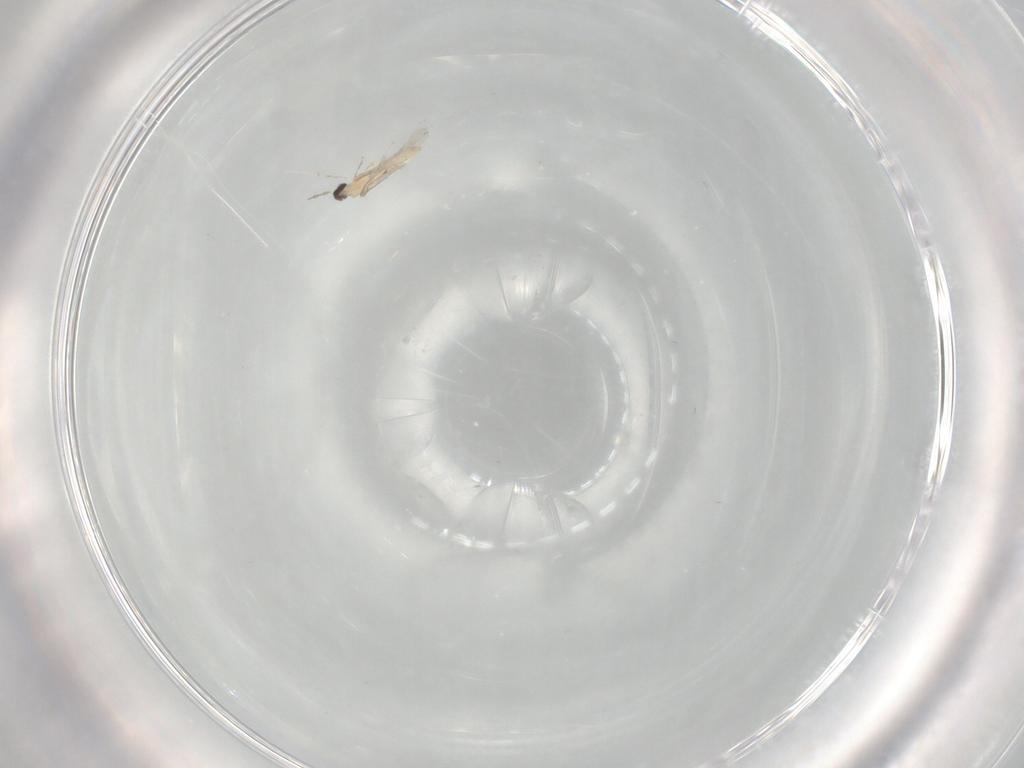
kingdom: Animalia
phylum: Arthropoda
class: Insecta
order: Diptera
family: Cecidomyiidae
